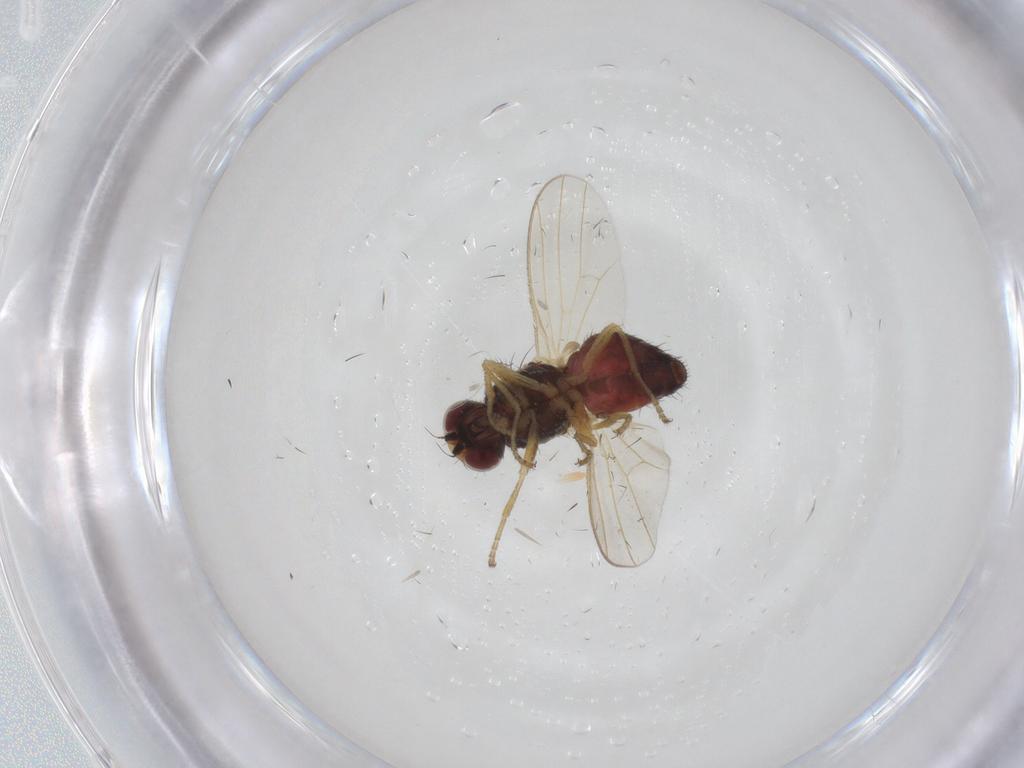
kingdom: Animalia
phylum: Arthropoda
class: Insecta
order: Diptera
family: Heleomyzidae
